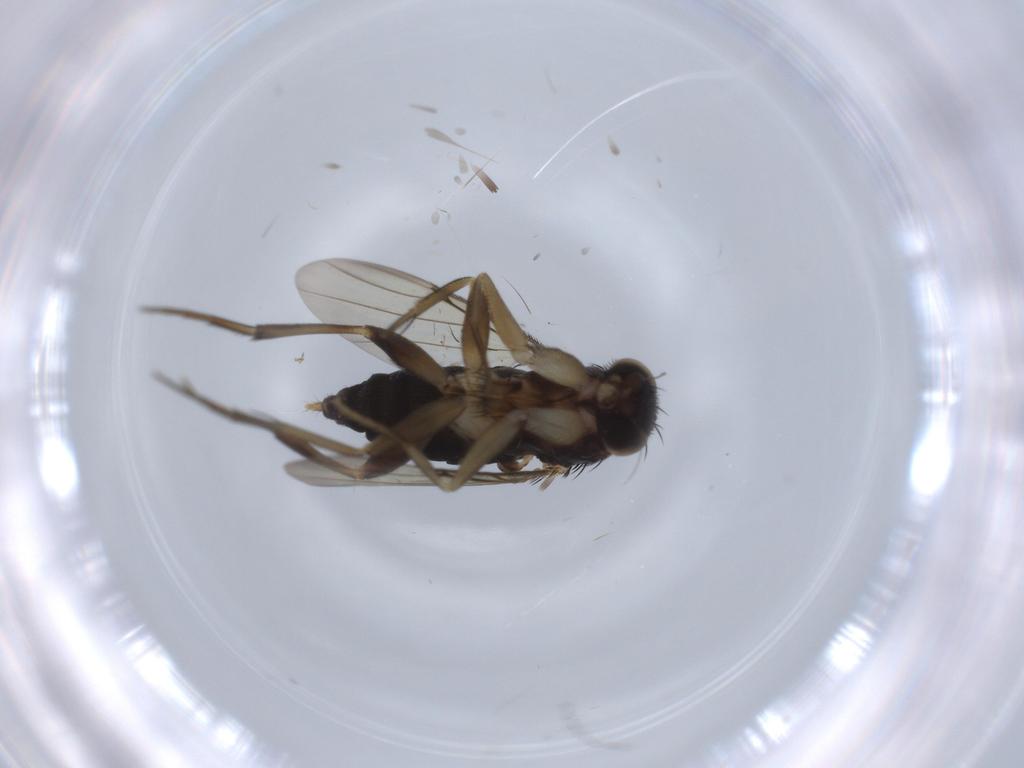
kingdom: Animalia
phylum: Arthropoda
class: Insecta
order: Diptera
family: Phoridae
